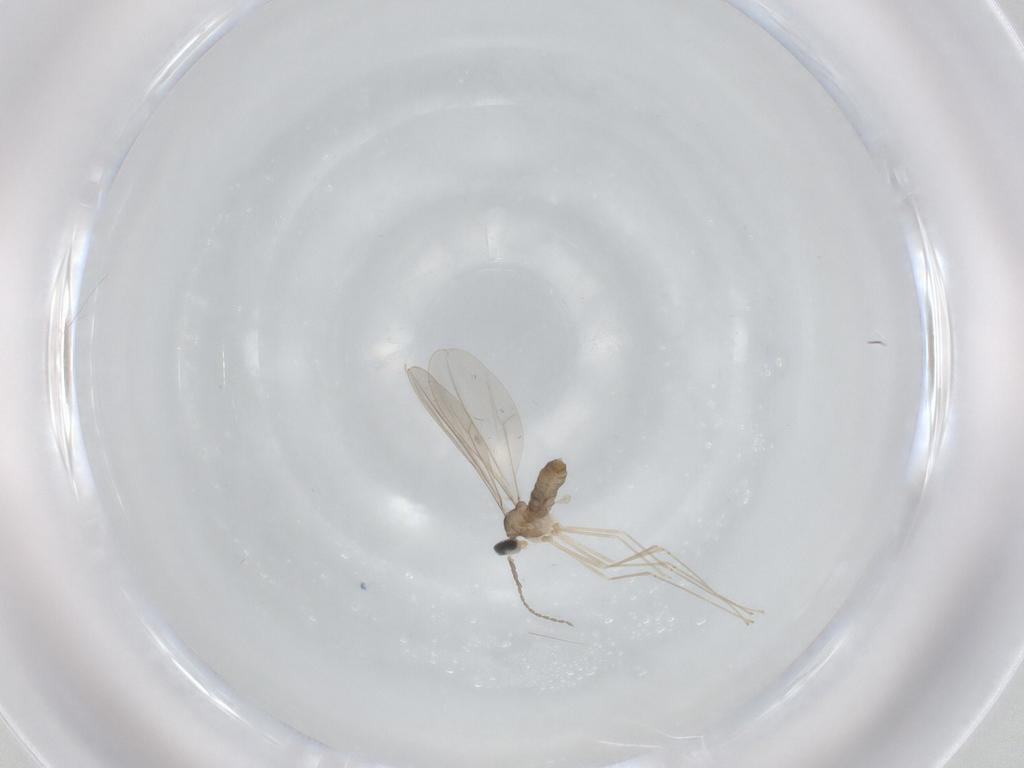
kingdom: Animalia
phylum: Arthropoda
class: Insecta
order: Diptera
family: Cecidomyiidae
